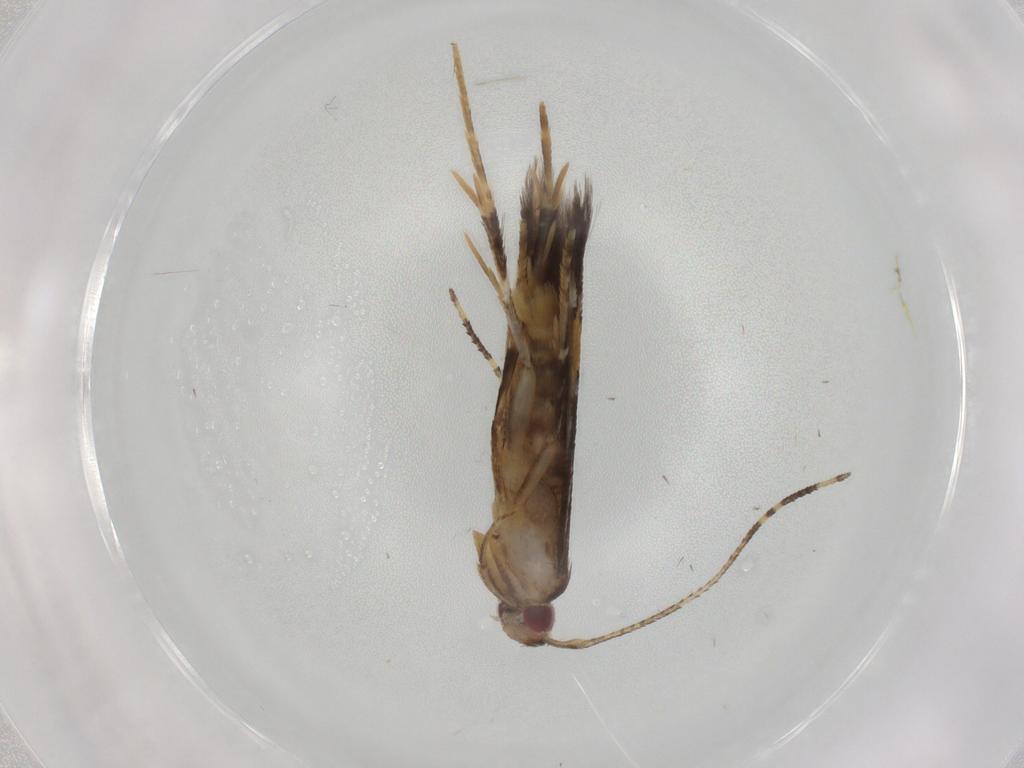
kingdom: Animalia
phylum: Arthropoda
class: Insecta
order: Lepidoptera
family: Cosmopterigidae
